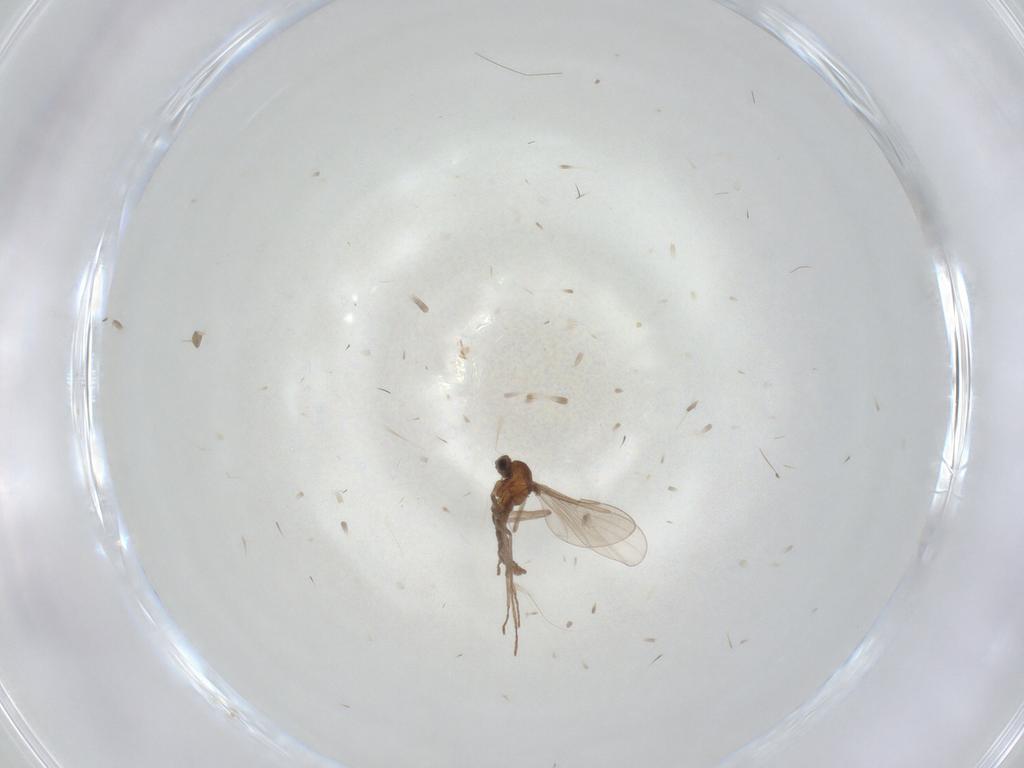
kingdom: Animalia
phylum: Arthropoda
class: Insecta
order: Diptera
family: Cecidomyiidae
